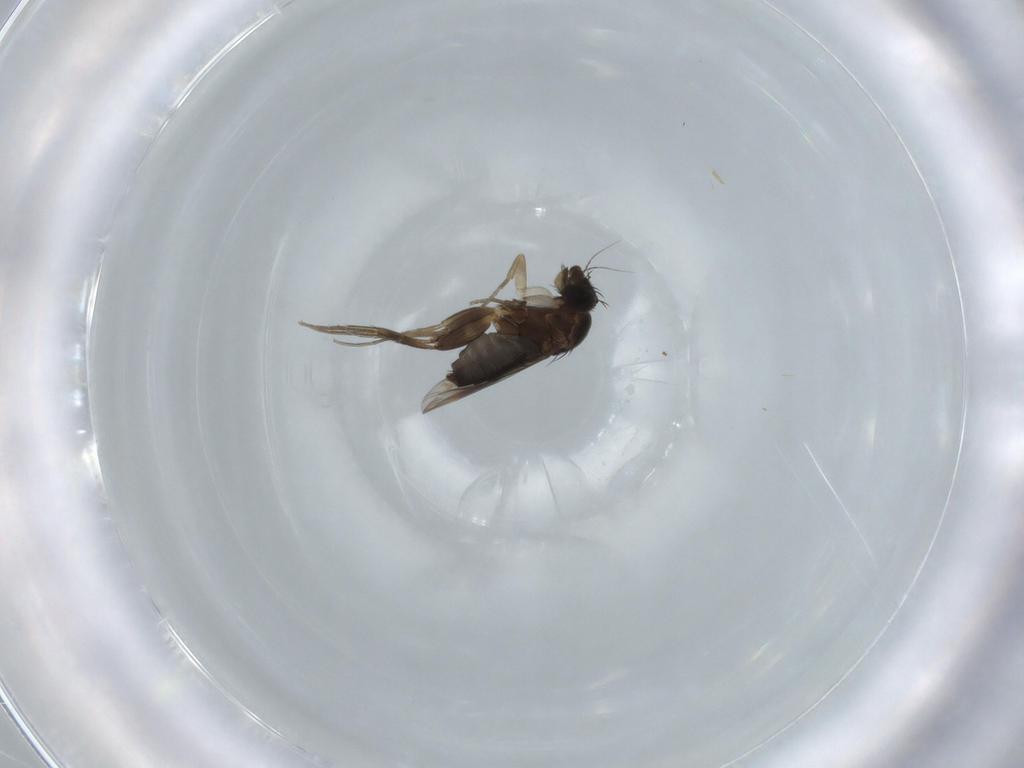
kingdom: Animalia
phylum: Arthropoda
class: Insecta
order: Diptera
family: Phoridae
